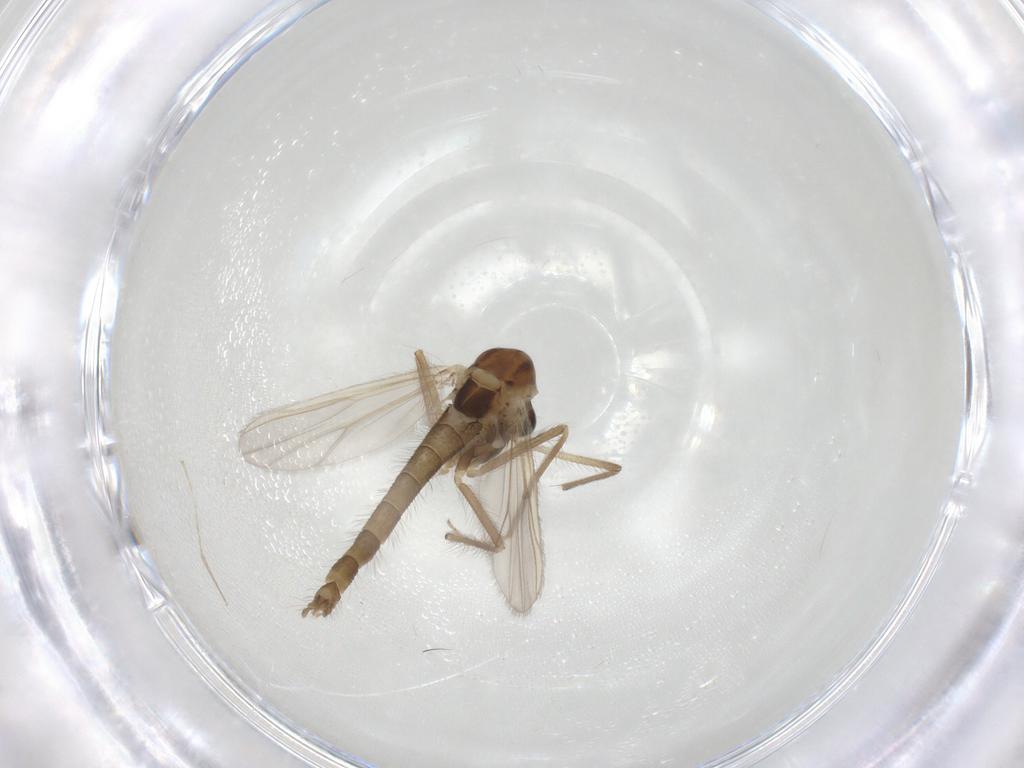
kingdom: Animalia
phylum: Arthropoda
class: Insecta
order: Diptera
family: Chironomidae
